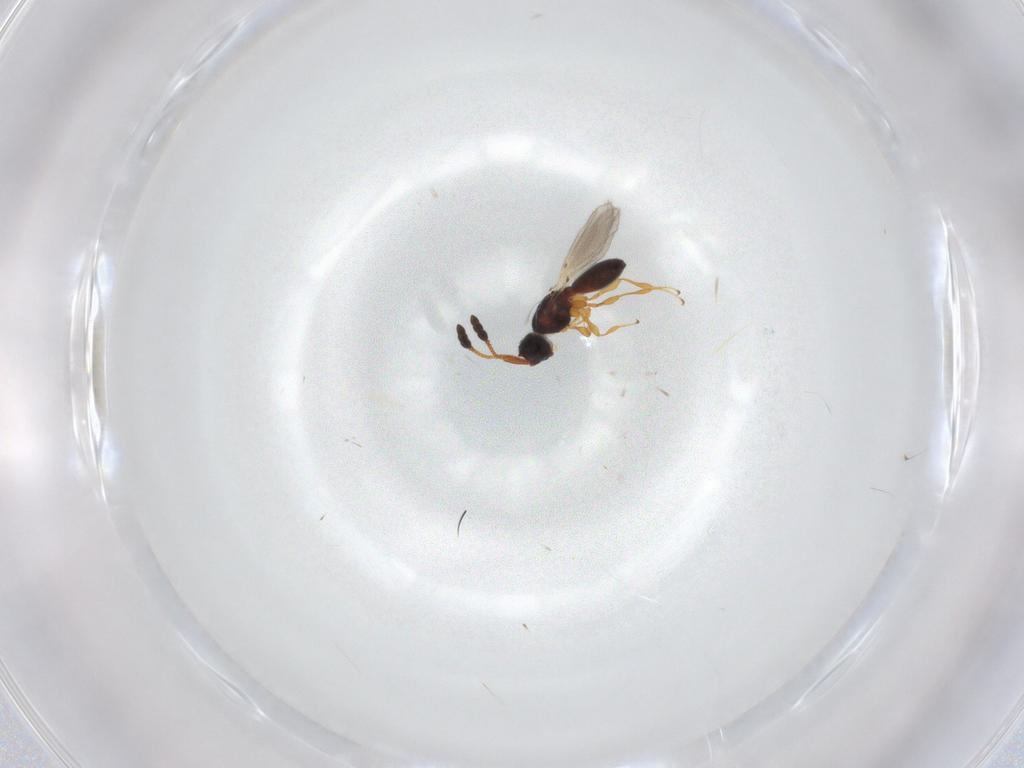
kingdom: Animalia
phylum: Arthropoda
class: Insecta
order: Hymenoptera
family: Diapriidae
